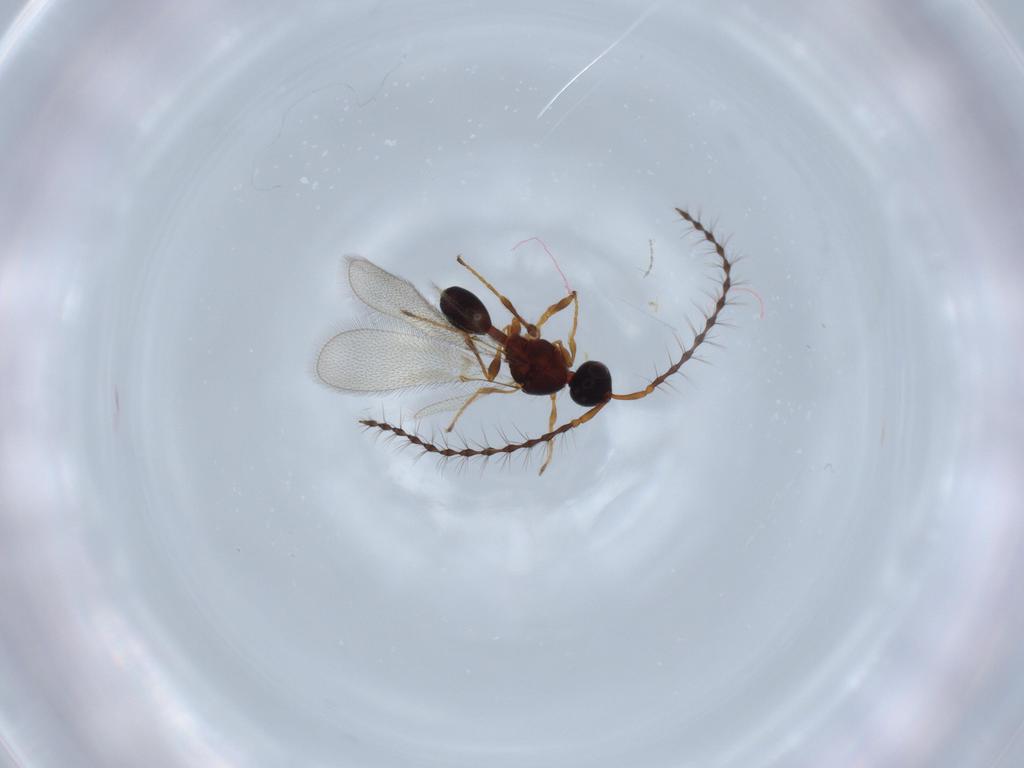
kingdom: Animalia
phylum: Arthropoda
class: Insecta
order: Hymenoptera
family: Diapriidae
